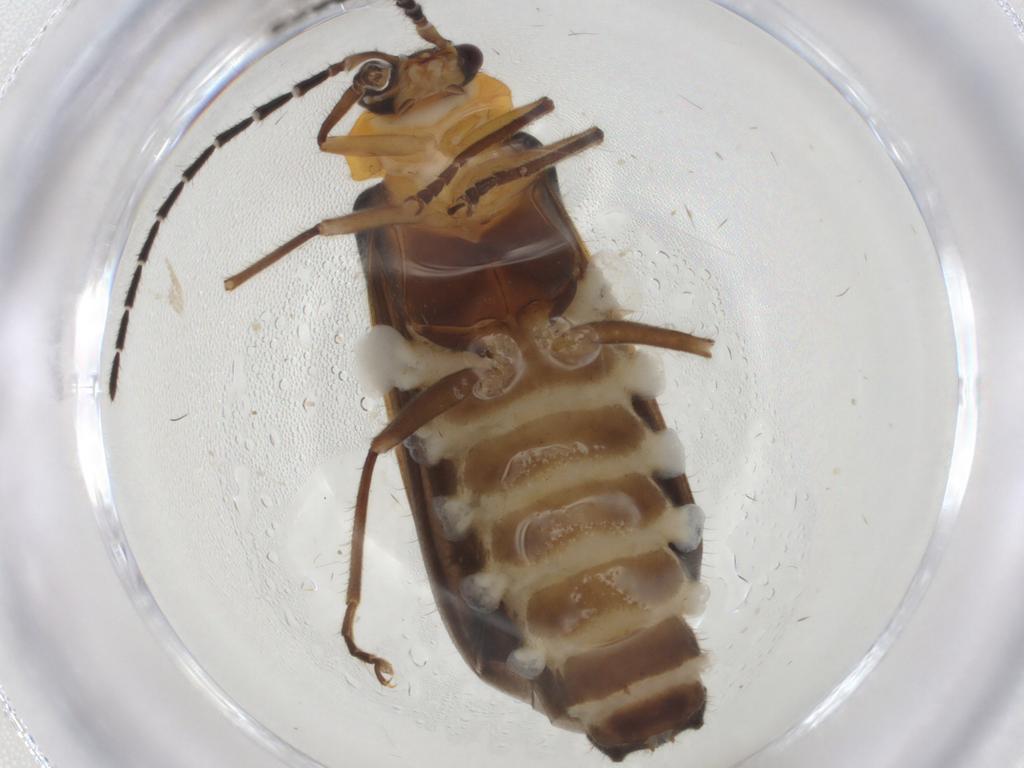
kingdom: Animalia
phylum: Arthropoda
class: Insecta
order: Coleoptera
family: Cantharidae
